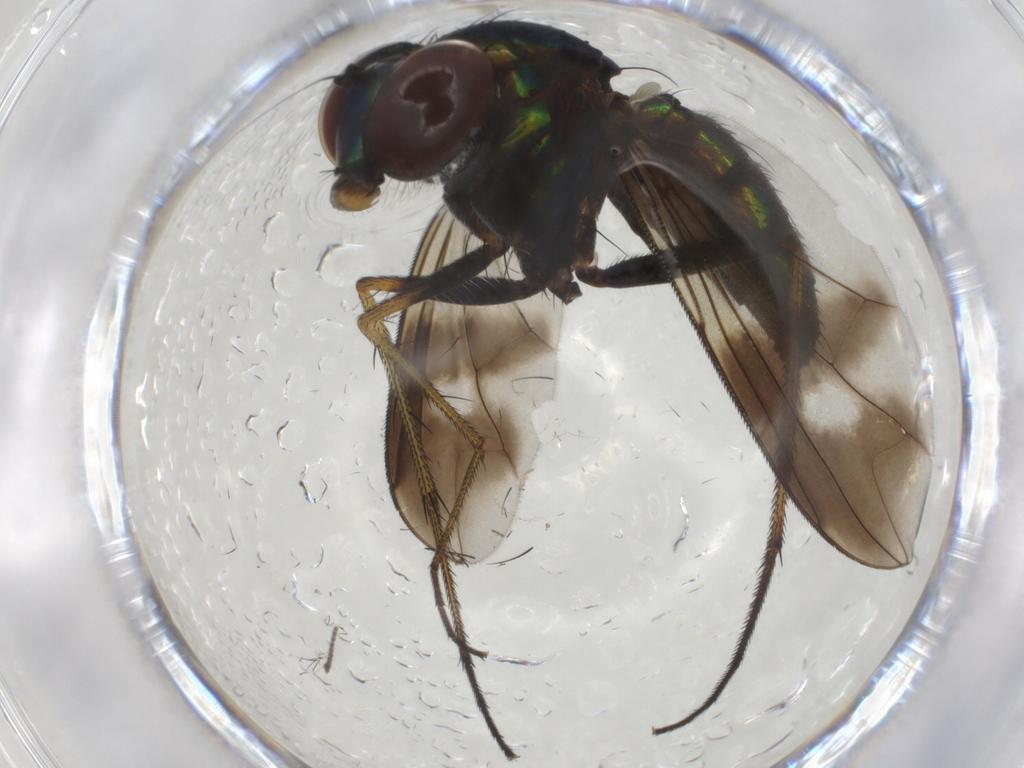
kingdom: Animalia
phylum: Arthropoda
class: Insecta
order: Diptera
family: Dolichopodidae
